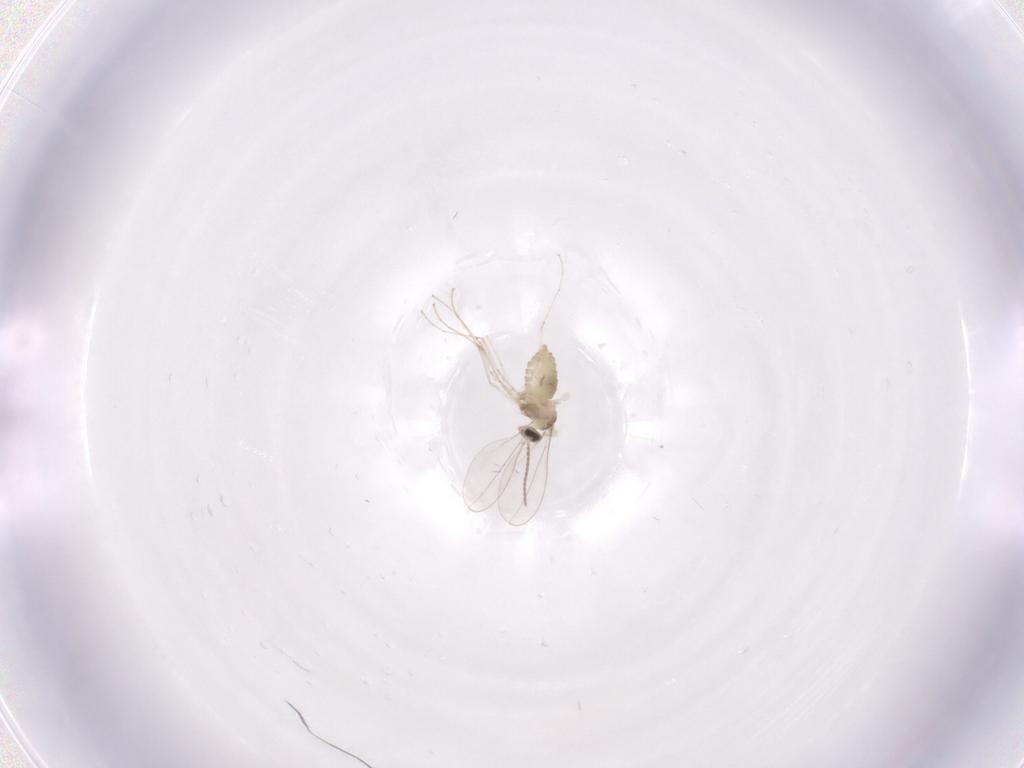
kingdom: Animalia
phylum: Arthropoda
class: Insecta
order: Diptera
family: Cecidomyiidae
